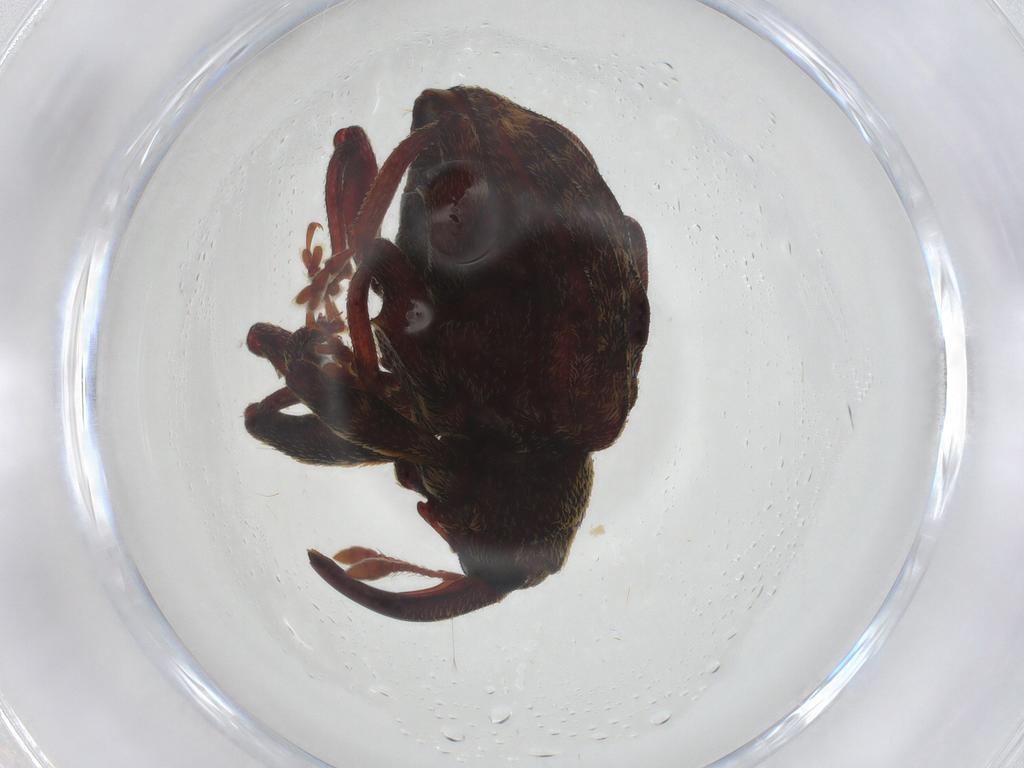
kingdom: Animalia
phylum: Arthropoda
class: Insecta
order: Coleoptera
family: Curculionidae
